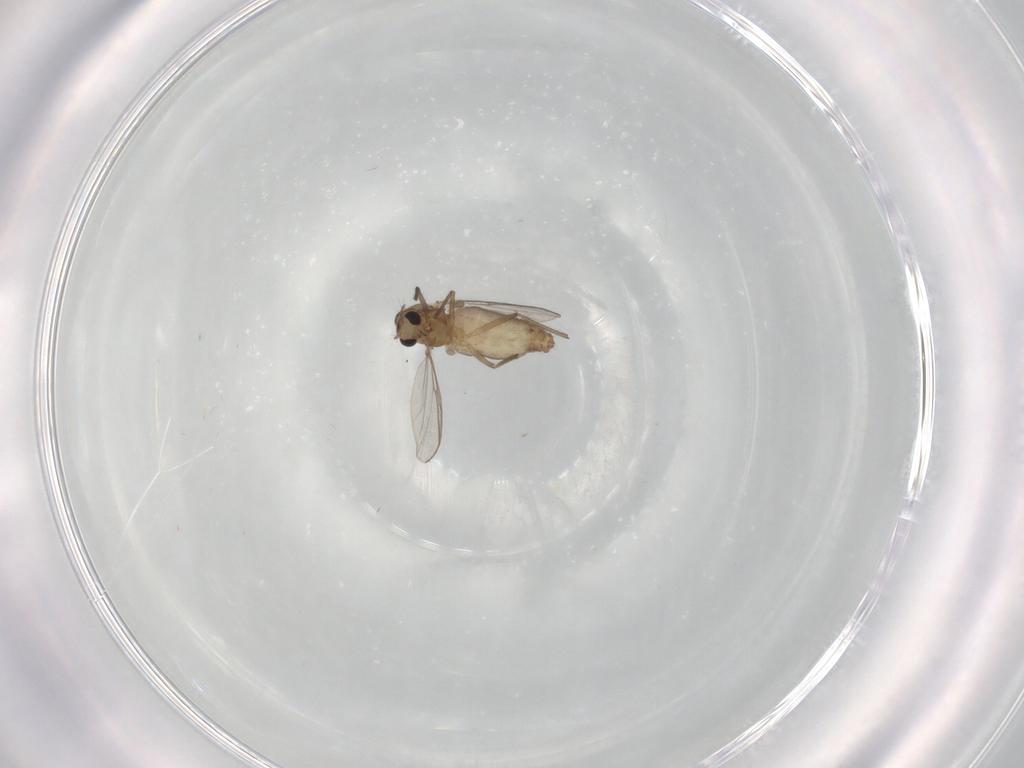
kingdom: Animalia
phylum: Arthropoda
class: Insecta
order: Diptera
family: Chironomidae
